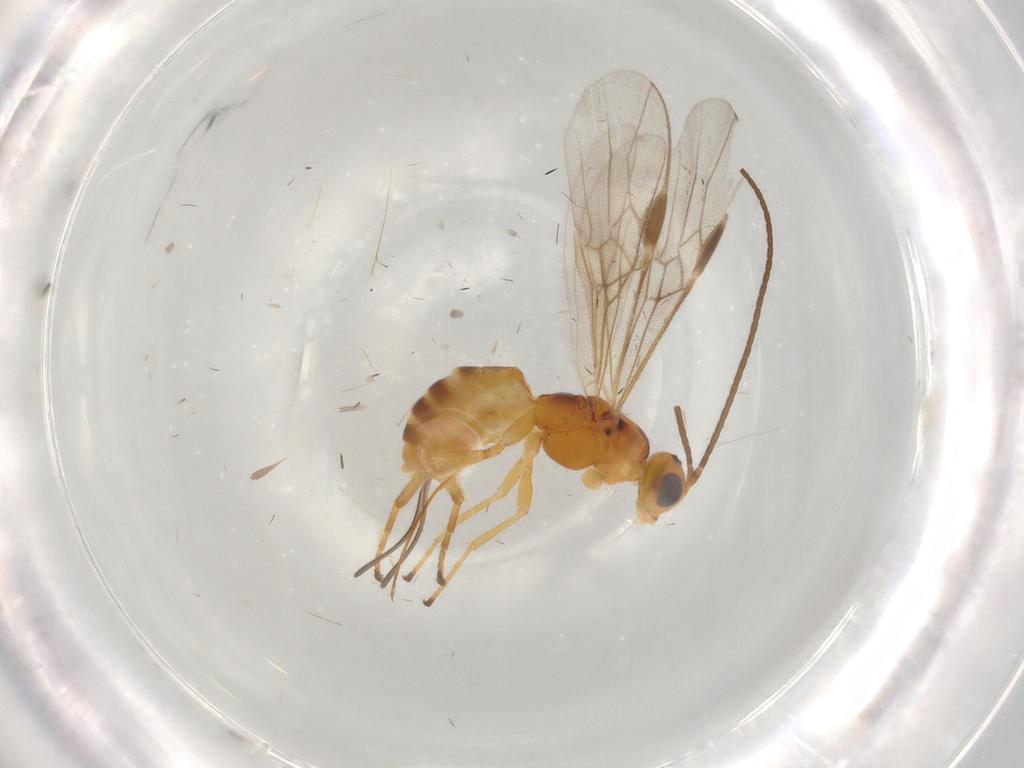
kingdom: Animalia
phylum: Arthropoda
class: Insecta
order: Hymenoptera
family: Braconidae
